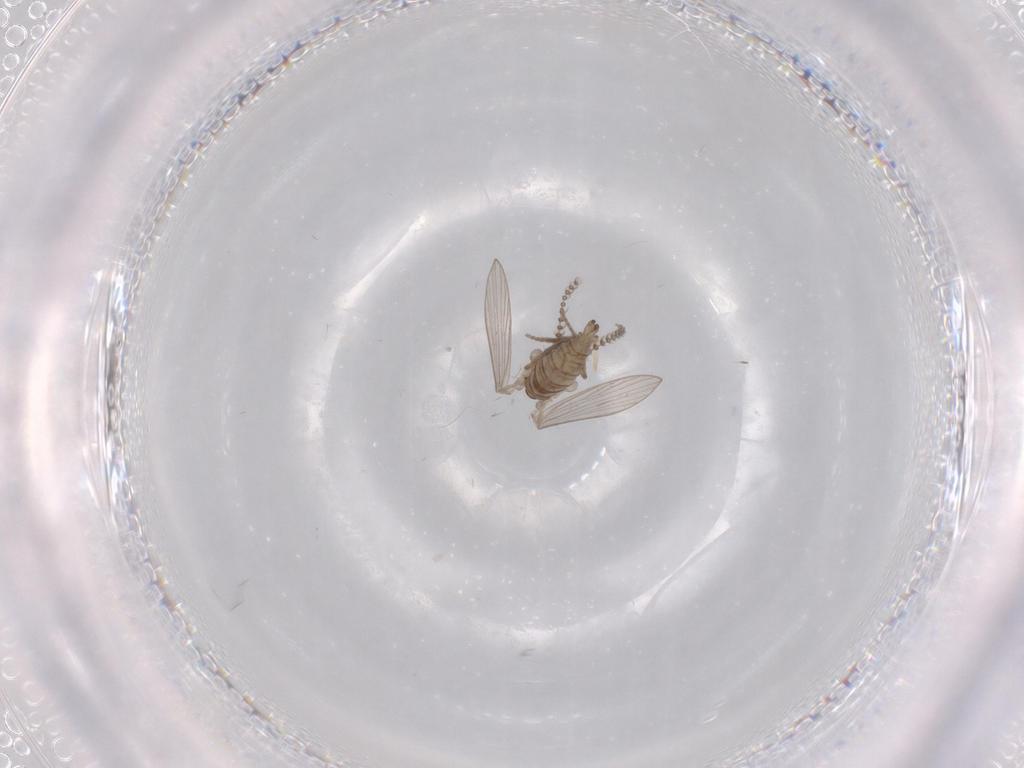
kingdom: Animalia
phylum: Arthropoda
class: Insecta
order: Diptera
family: Psychodidae
